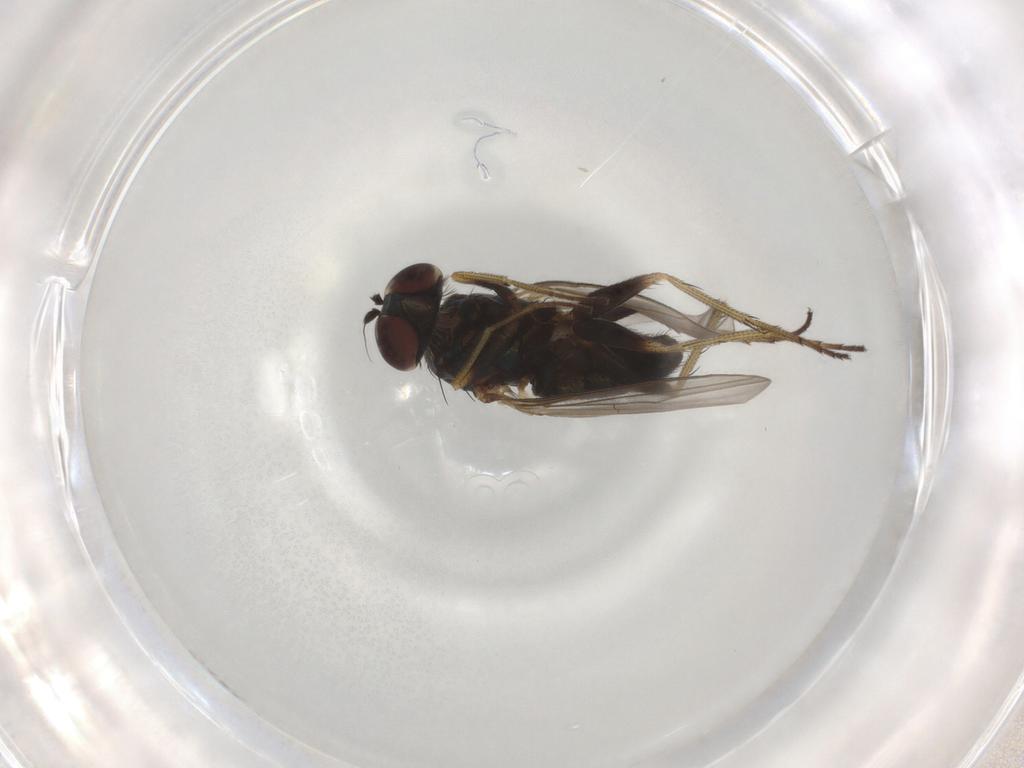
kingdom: Animalia
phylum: Arthropoda
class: Insecta
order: Diptera
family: Dolichopodidae
